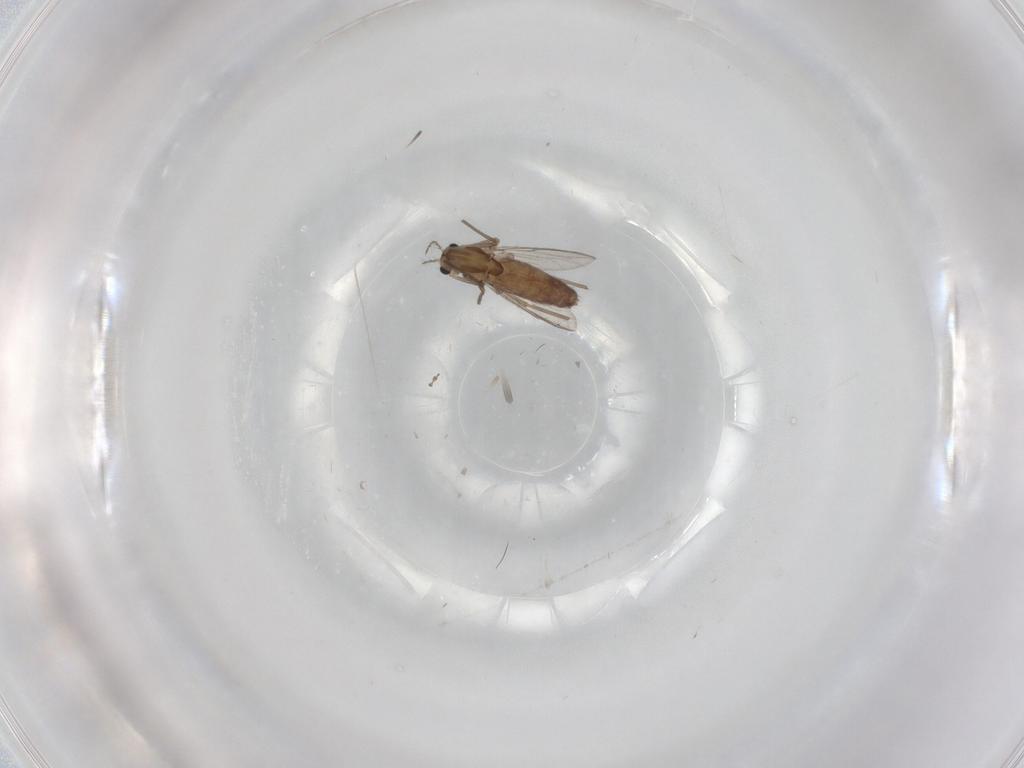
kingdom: Animalia
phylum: Arthropoda
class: Insecta
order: Diptera
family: Chironomidae
